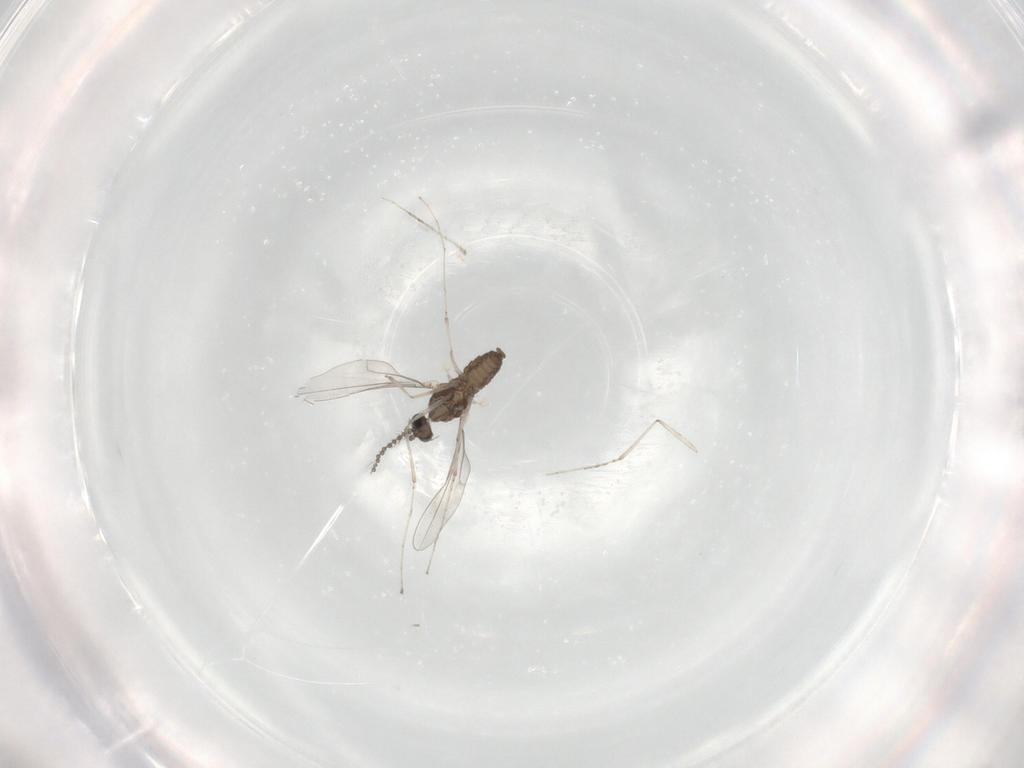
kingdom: Animalia
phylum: Arthropoda
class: Insecta
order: Diptera
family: Cecidomyiidae
